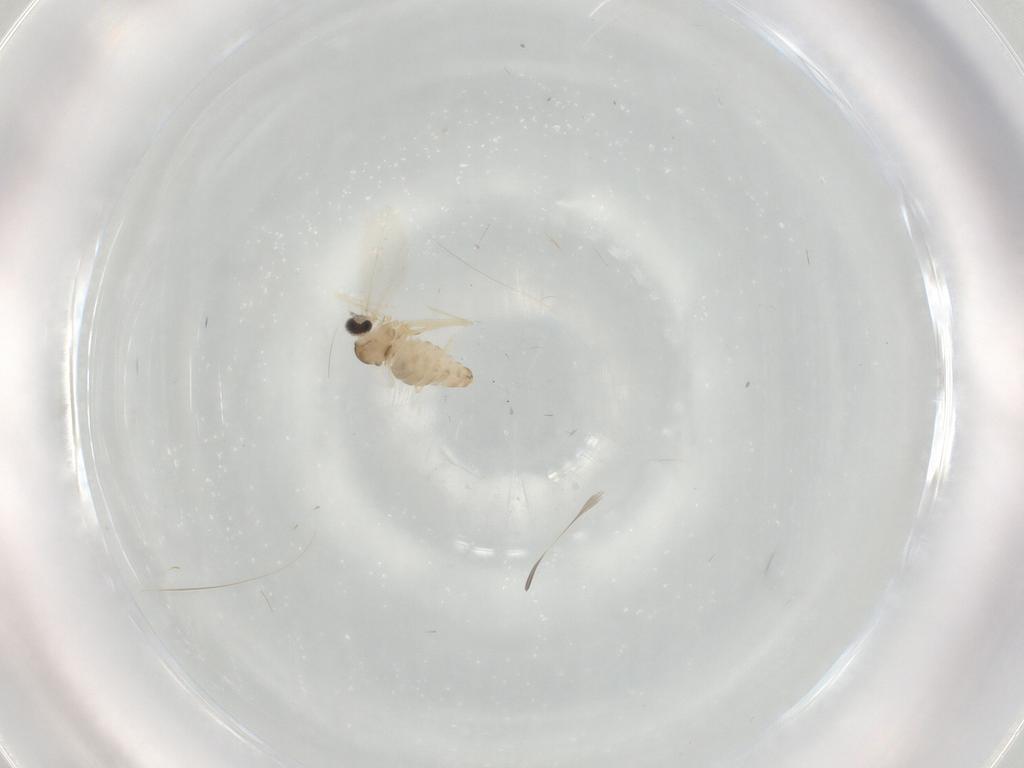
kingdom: Animalia
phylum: Arthropoda
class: Insecta
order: Diptera
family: Cecidomyiidae
